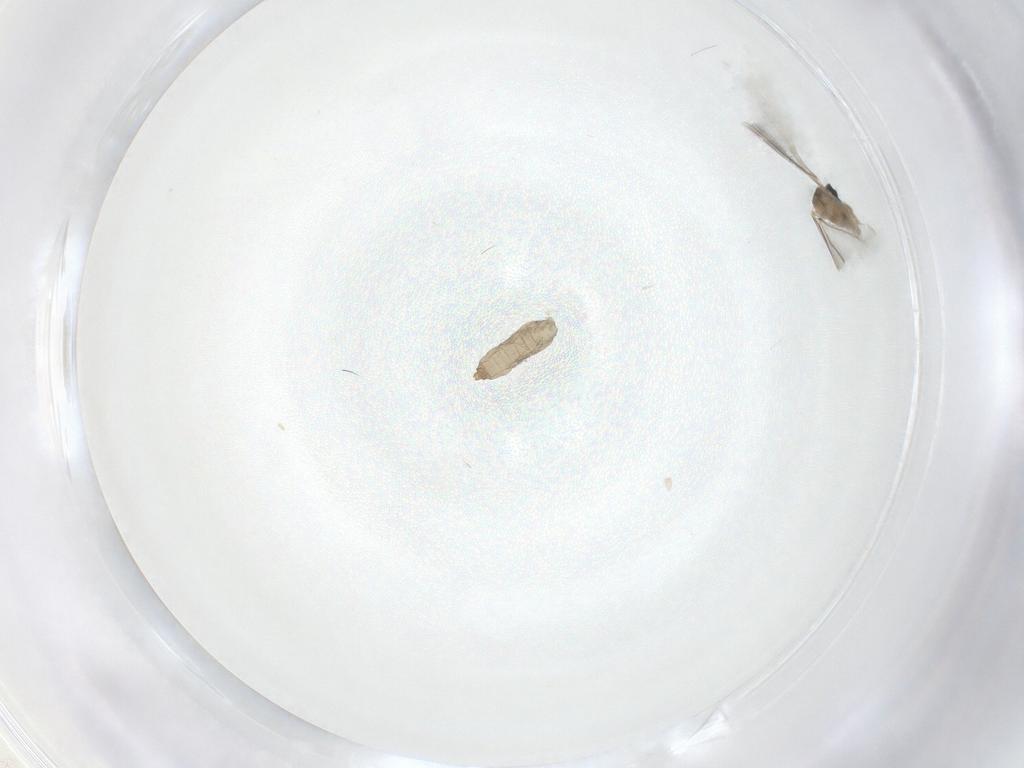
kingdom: Animalia
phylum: Arthropoda
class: Insecta
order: Diptera
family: Cecidomyiidae
